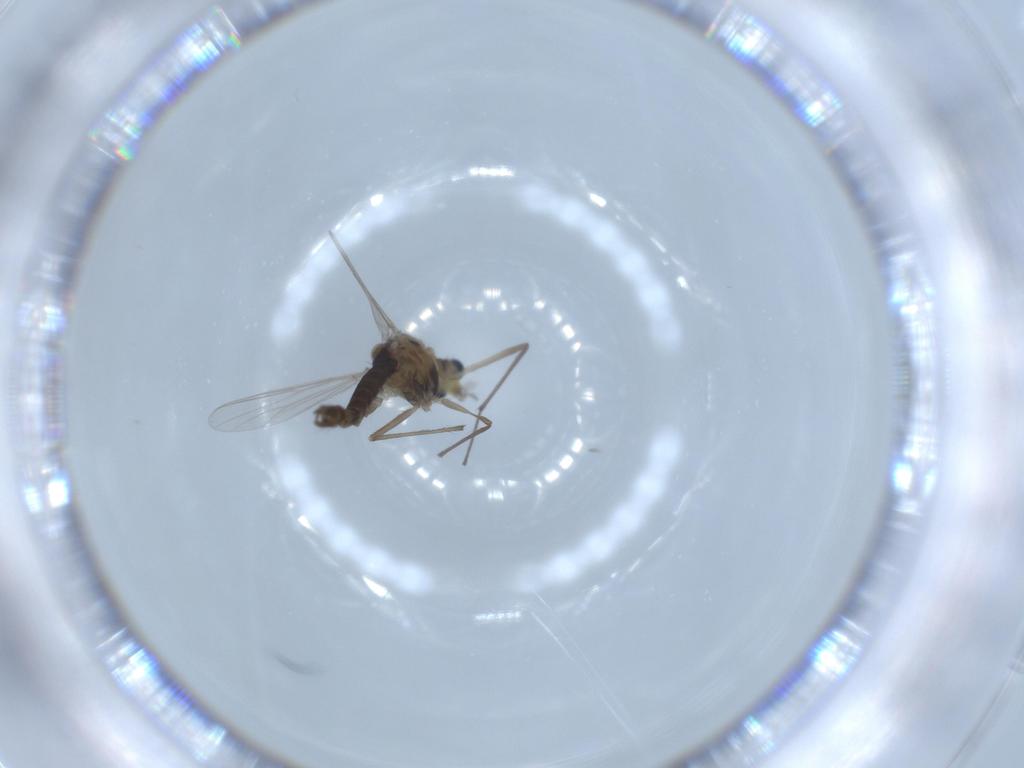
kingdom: Animalia
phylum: Arthropoda
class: Insecta
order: Diptera
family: Chironomidae
